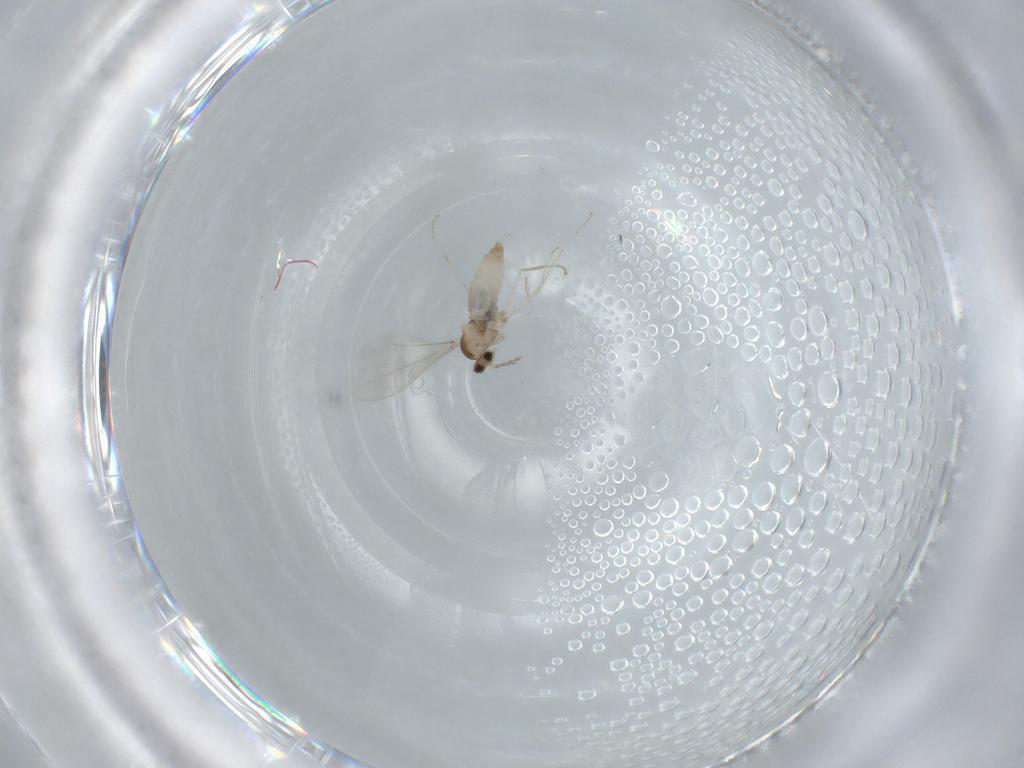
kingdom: Animalia
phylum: Arthropoda
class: Insecta
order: Diptera
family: Cecidomyiidae
